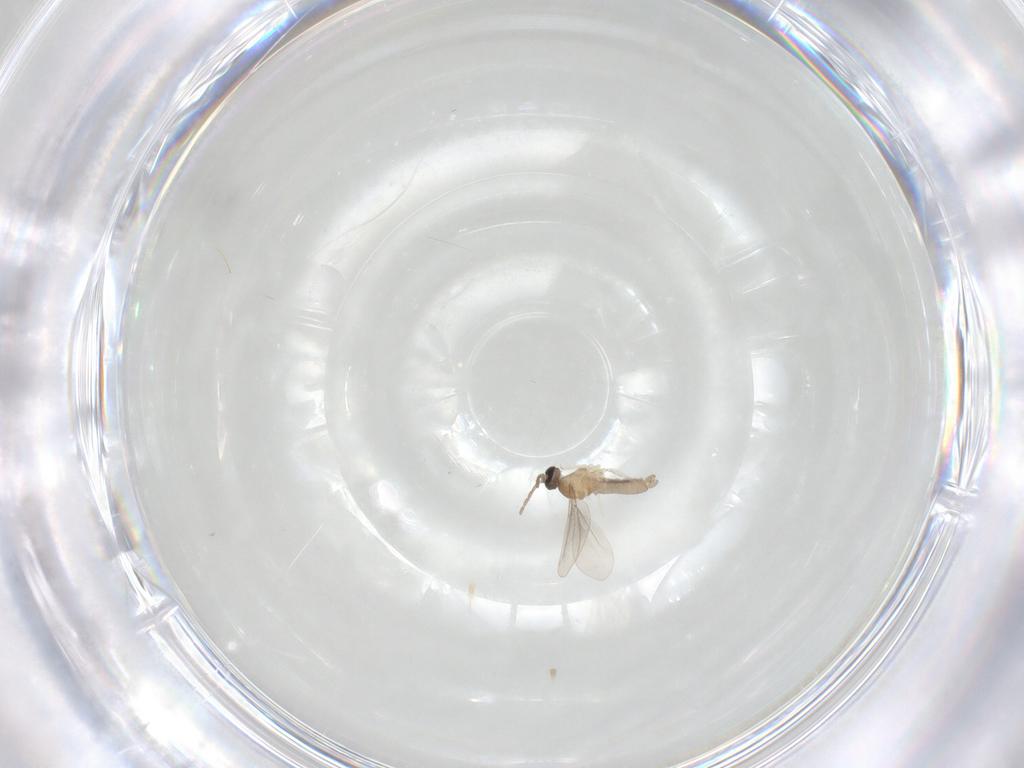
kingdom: Animalia
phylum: Arthropoda
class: Insecta
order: Diptera
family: Cecidomyiidae
